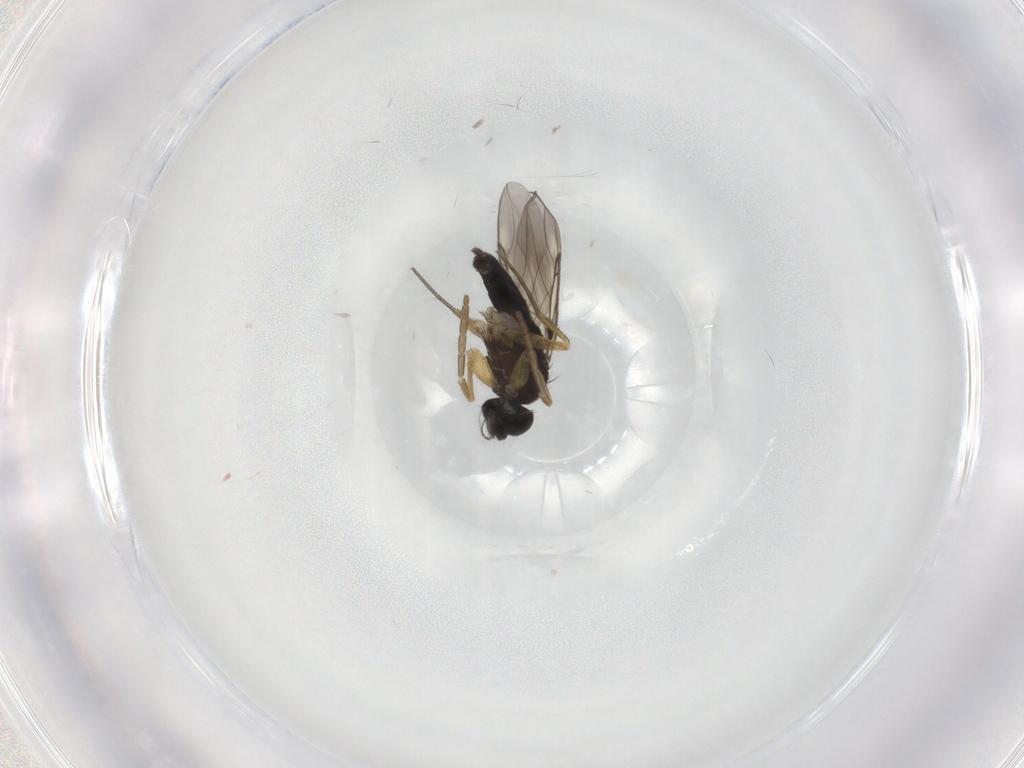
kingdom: Animalia
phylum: Arthropoda
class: Insecta
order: Diptera
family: Phoridae
